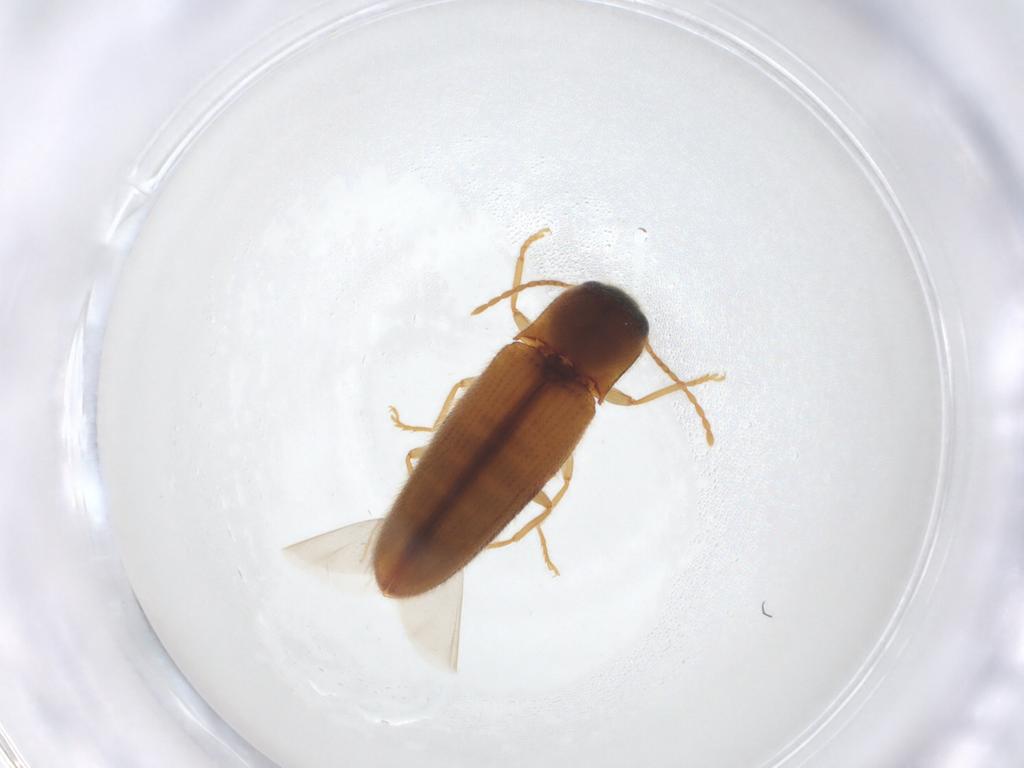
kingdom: Animalia
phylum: Arthropoda
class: Insecta
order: Coleoptera
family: Elateridae
